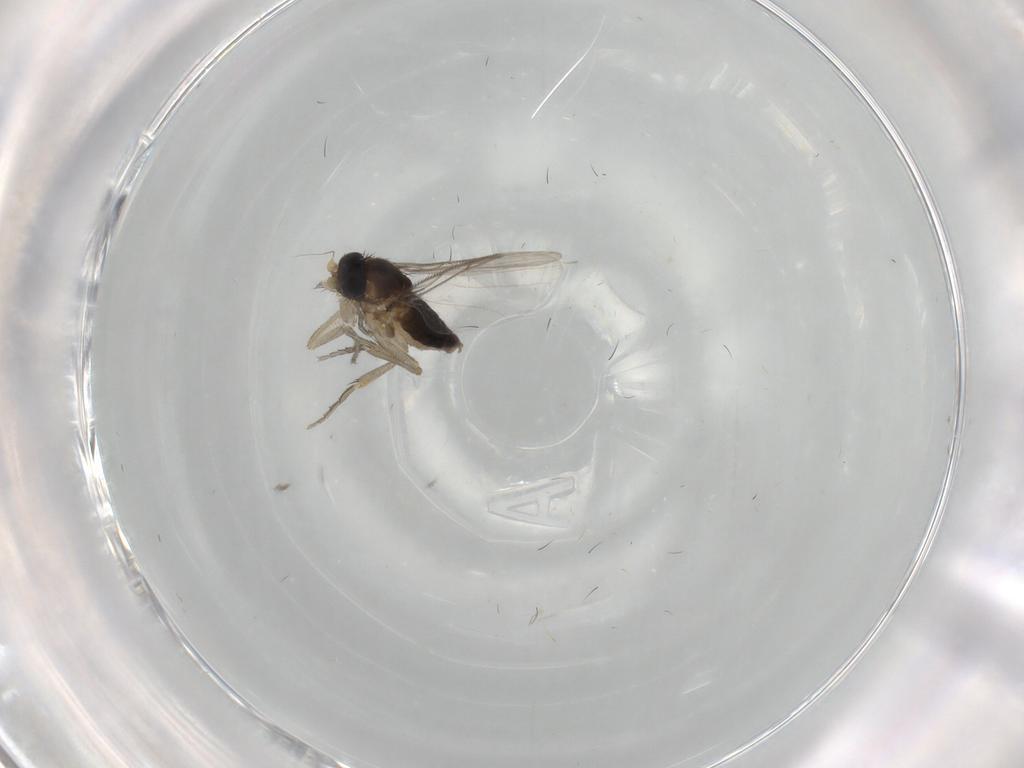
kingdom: Animalia
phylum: Arthropoda
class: Insecta
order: Diptera
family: Phoridae
